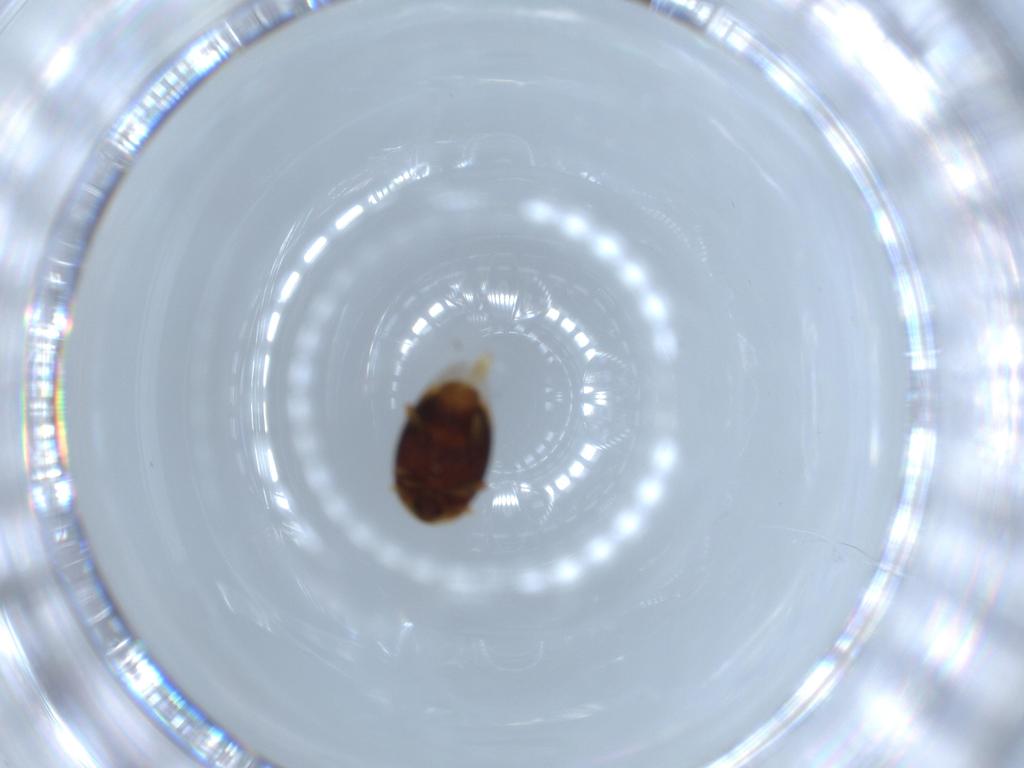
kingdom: Animalia
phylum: Arthropoda
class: Insecta
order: Coleoptera
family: Corylophidae
